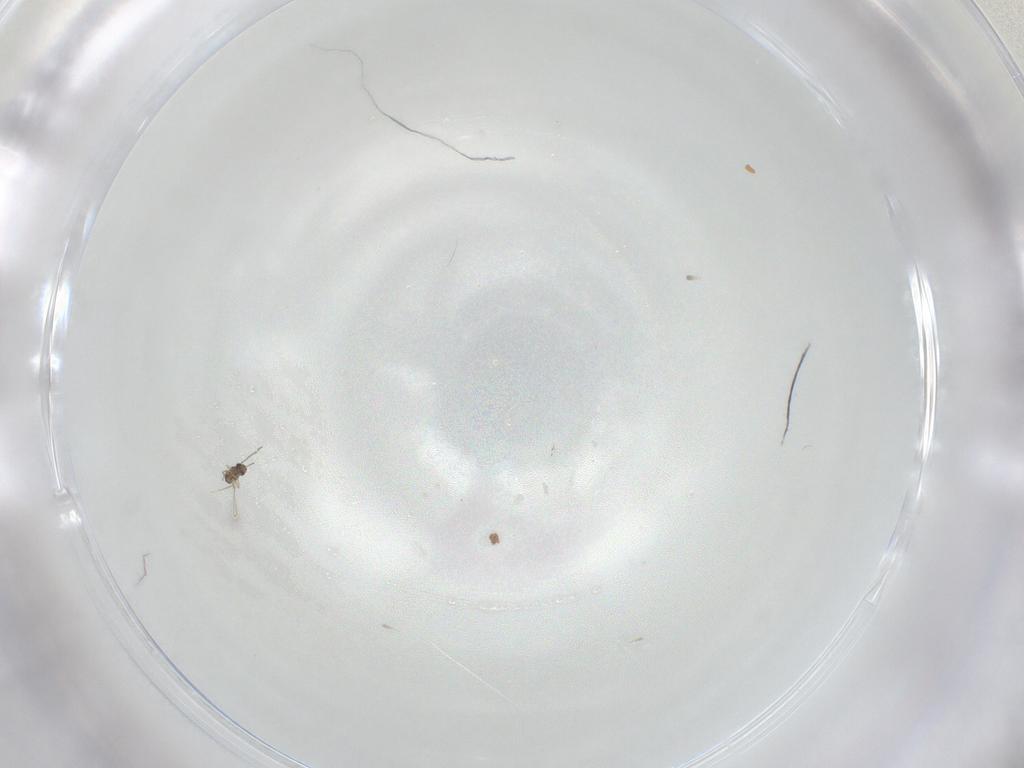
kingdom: Animalia
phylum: Arthropoda
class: Insecta
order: Hymenoptera
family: Mymaridae
